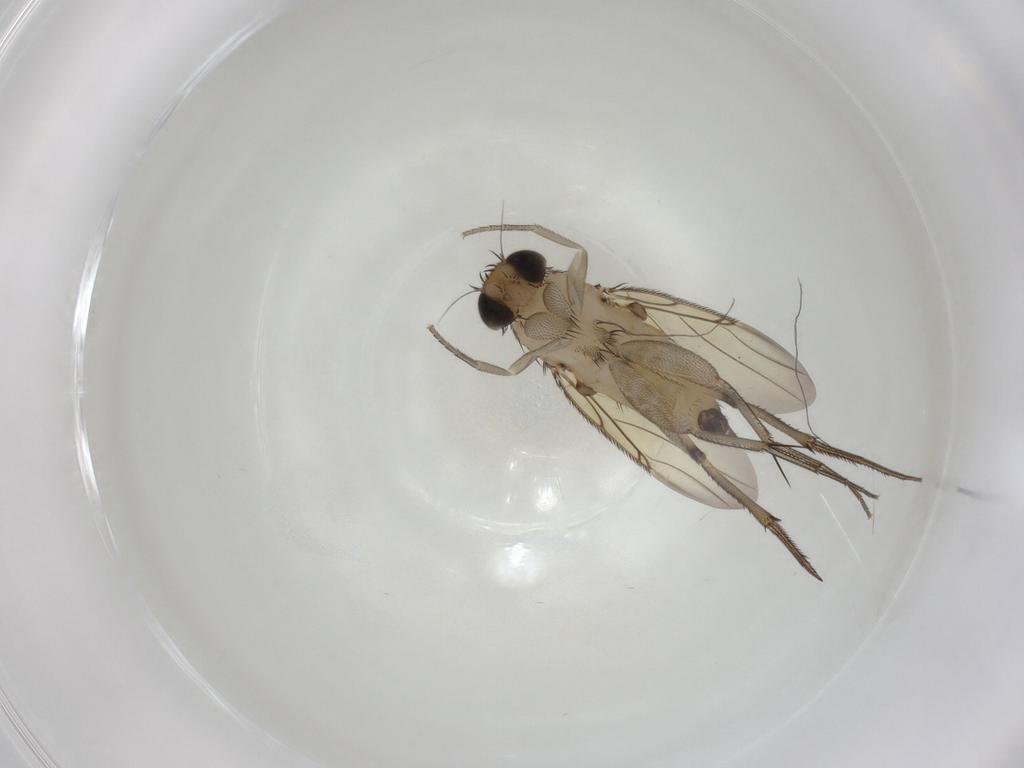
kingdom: Animalia
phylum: Arthropoda
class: Insecta
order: Diptera
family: Phoridae
